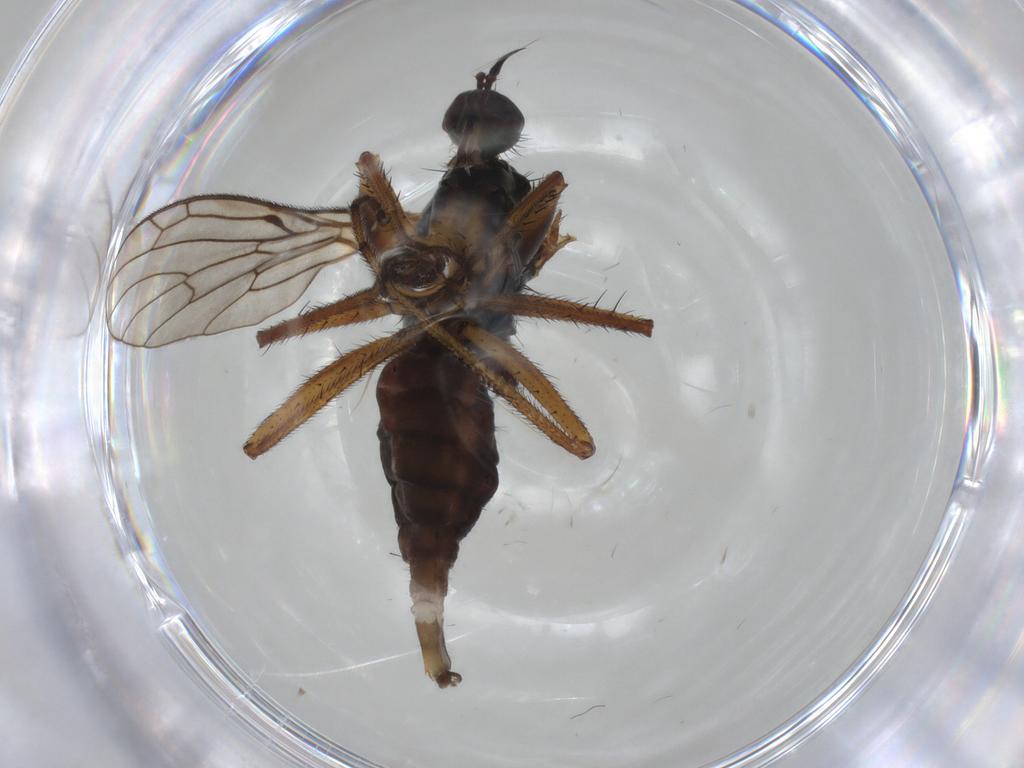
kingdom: Animalia
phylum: Arthropoda
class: Insecta
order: Diptera
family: Sciaridae
